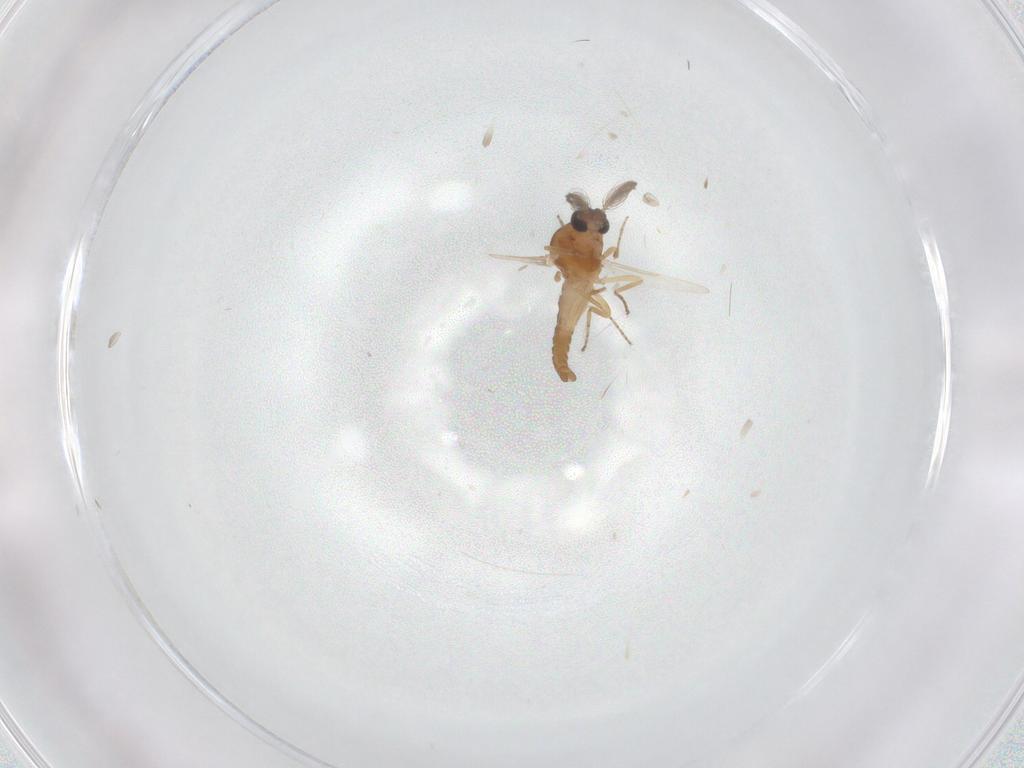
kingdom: Animalia
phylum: Arthropoda
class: Insecta
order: Diptera
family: Ceratopogonidae
